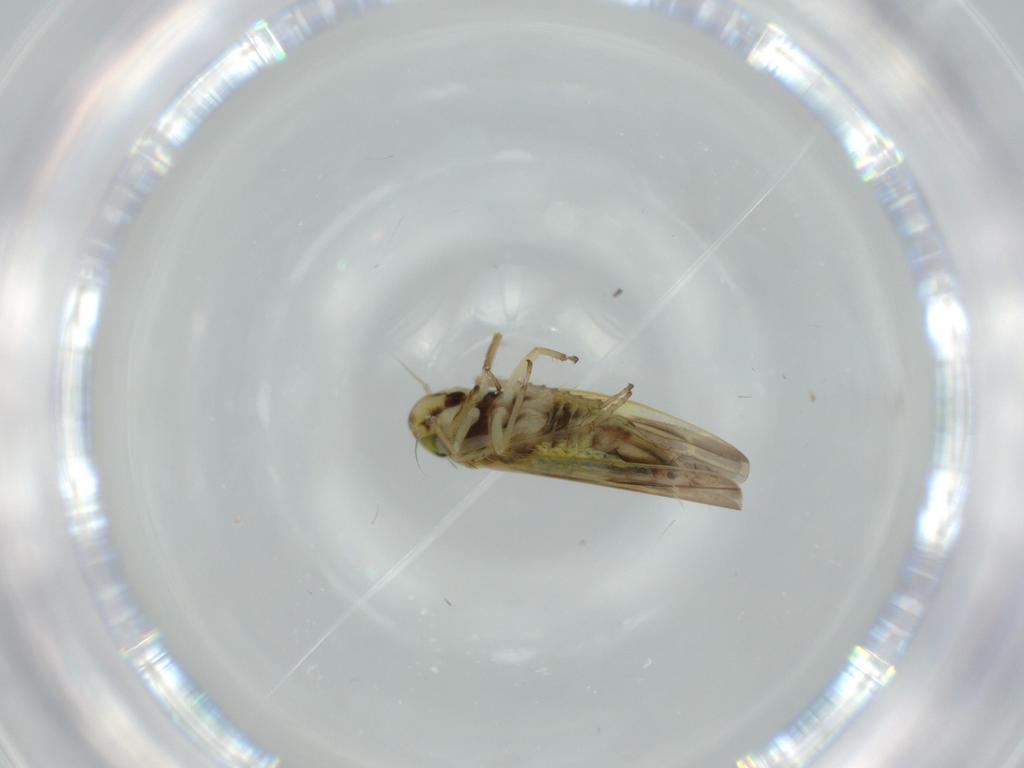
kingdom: Animalia
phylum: Arthropoda
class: Insecta
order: Hemiptera
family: Cicadellidae
